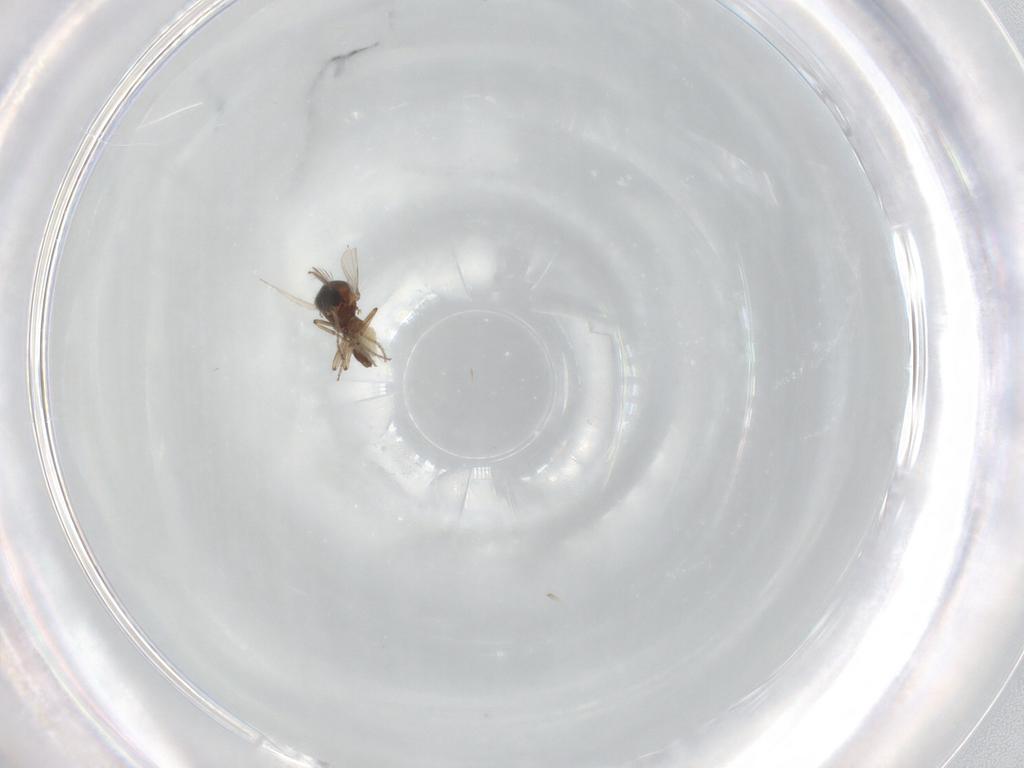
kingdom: Animalia
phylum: Arthropoda
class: Insecta
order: Diptera
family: Ceratopogonidae
